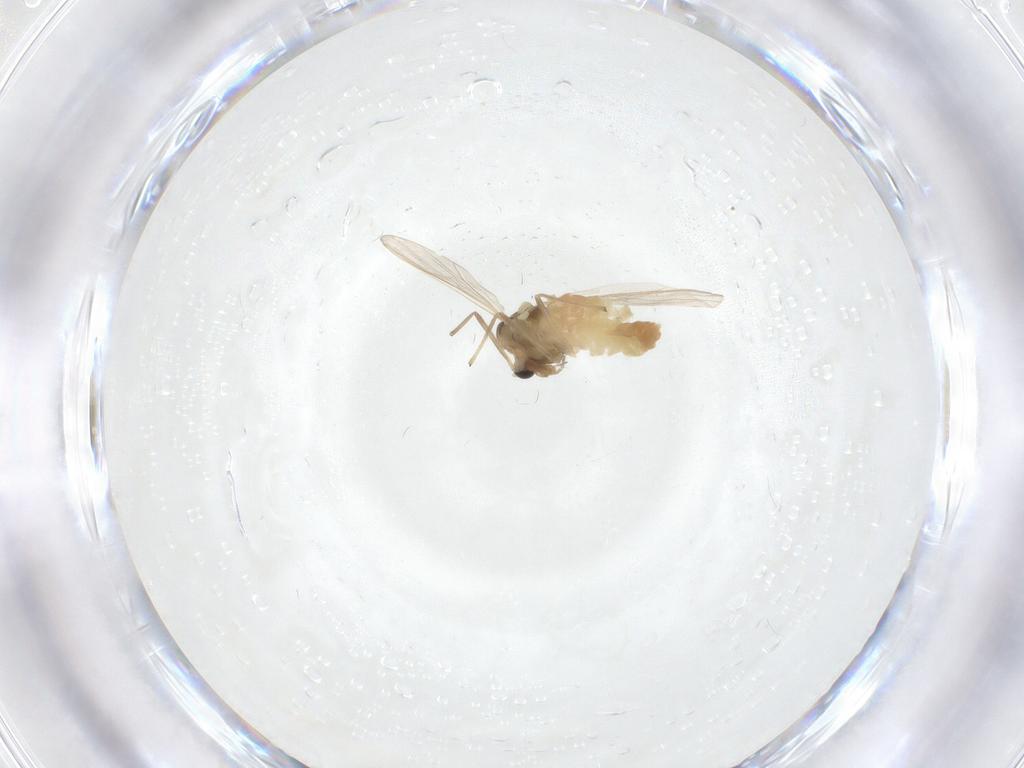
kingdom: Animalia
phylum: Arthropoda
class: Insecta
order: Diptera
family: Chironomidae
